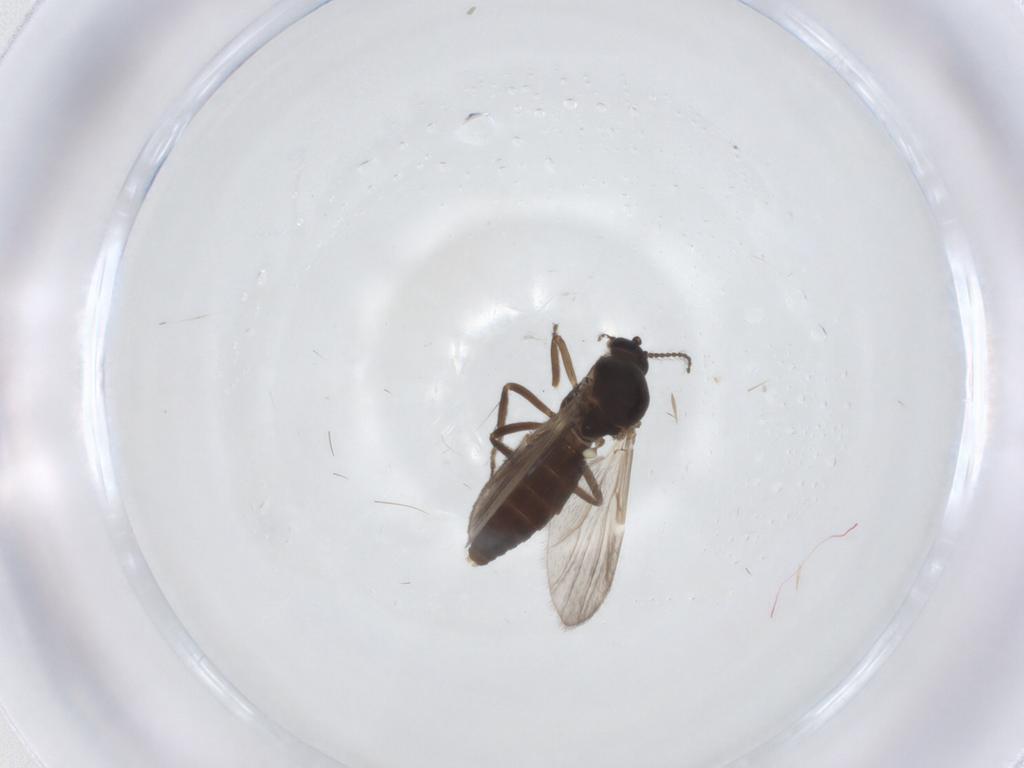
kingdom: Animalia
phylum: Arthropoda
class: Insecta
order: Diptera
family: Ceratopogonidae
